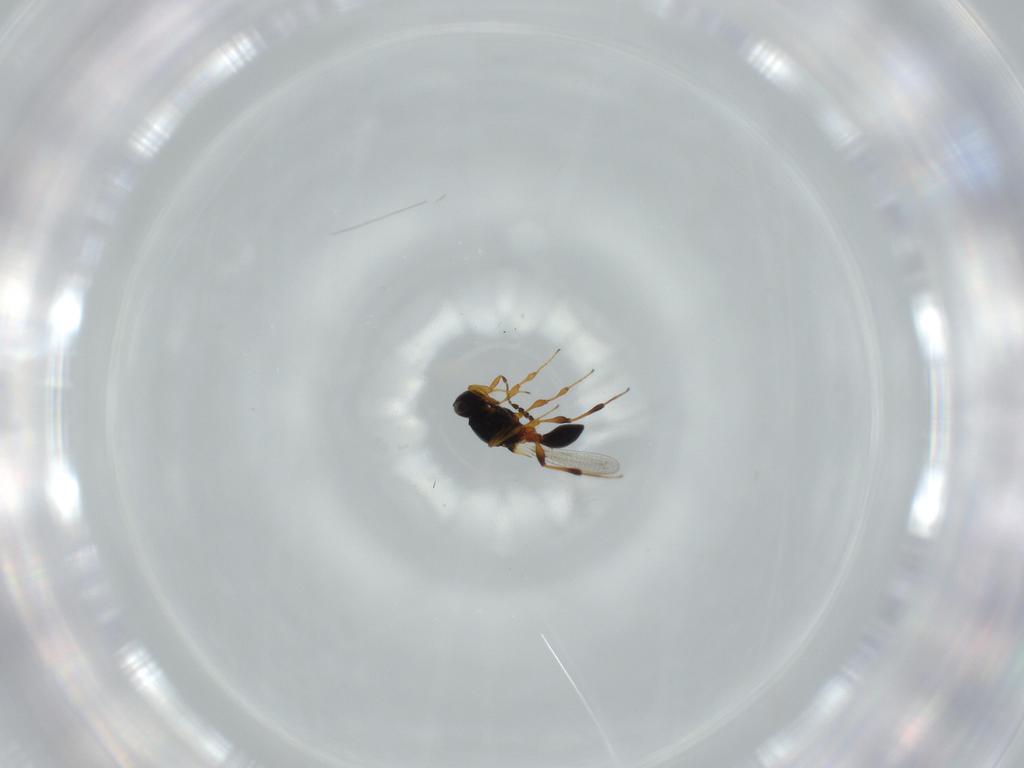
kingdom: Animalia
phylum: Arthropoda
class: Insecta
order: Hymenoptera
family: Platygastridae
